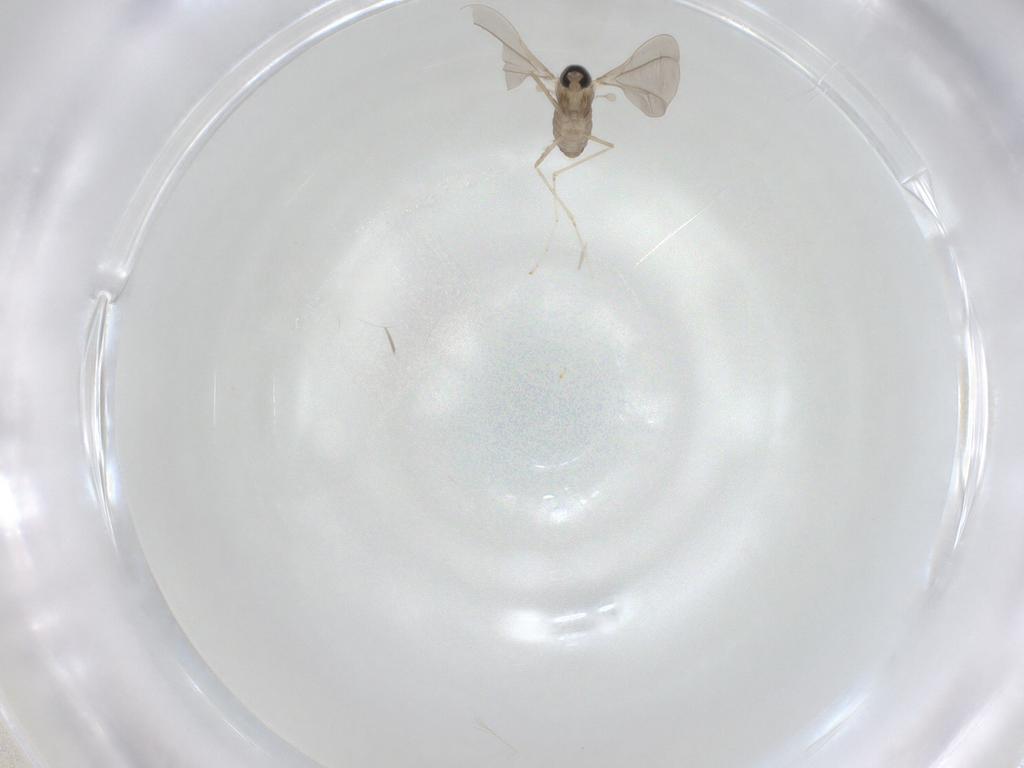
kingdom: Animalia
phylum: Arthropoda
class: Insecta
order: Diptera
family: Cecidomyiidae
